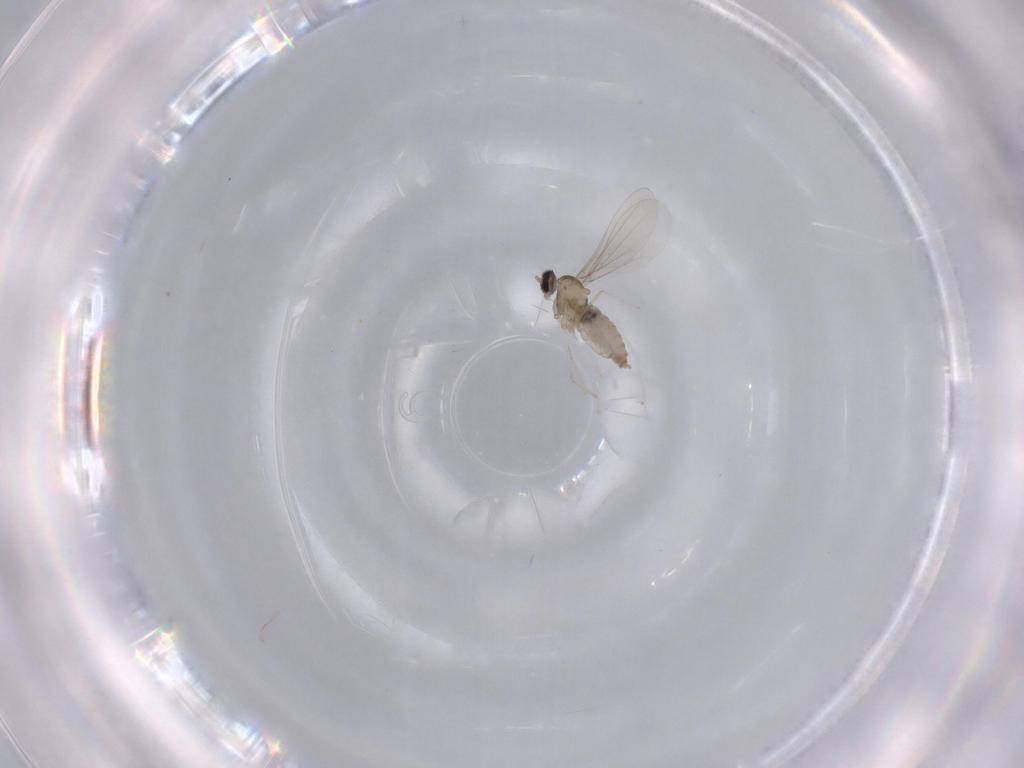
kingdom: Animalia
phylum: Arthropoda
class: Insecta
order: Diptera
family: Cecidomyiidae
